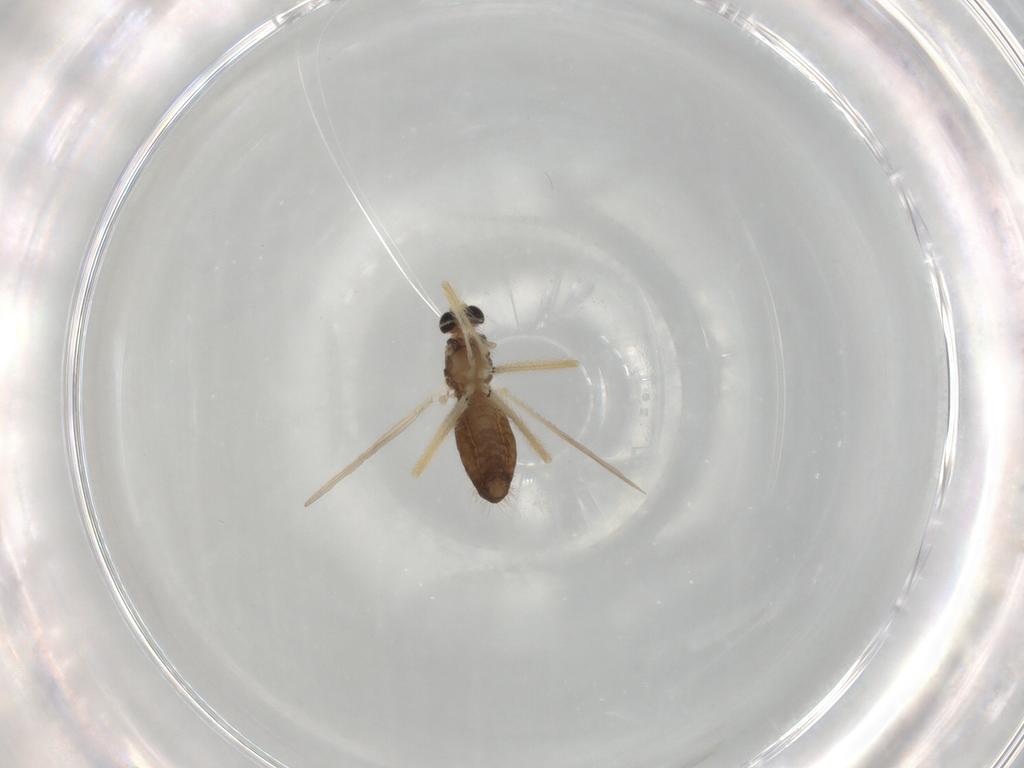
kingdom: Animalia
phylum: Arthropoda
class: Insecta
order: Diptera
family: Chironomidae
